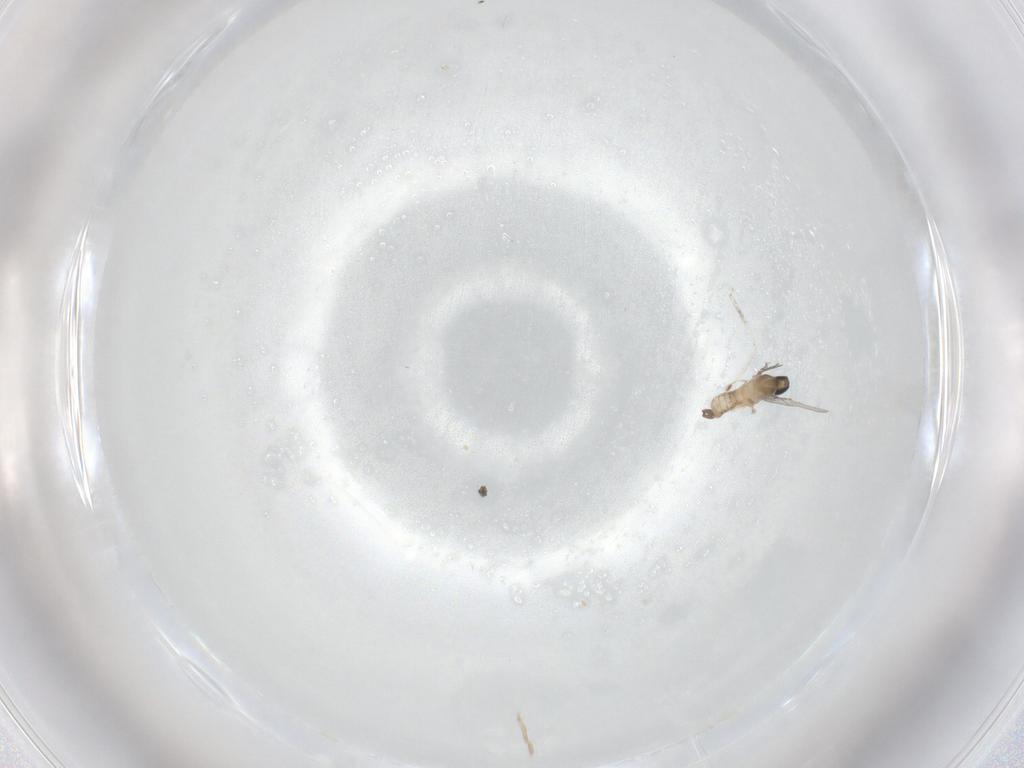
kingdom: Animalia
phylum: Arthropoda
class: Insecta
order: Diptera
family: Cecidomyiidae
